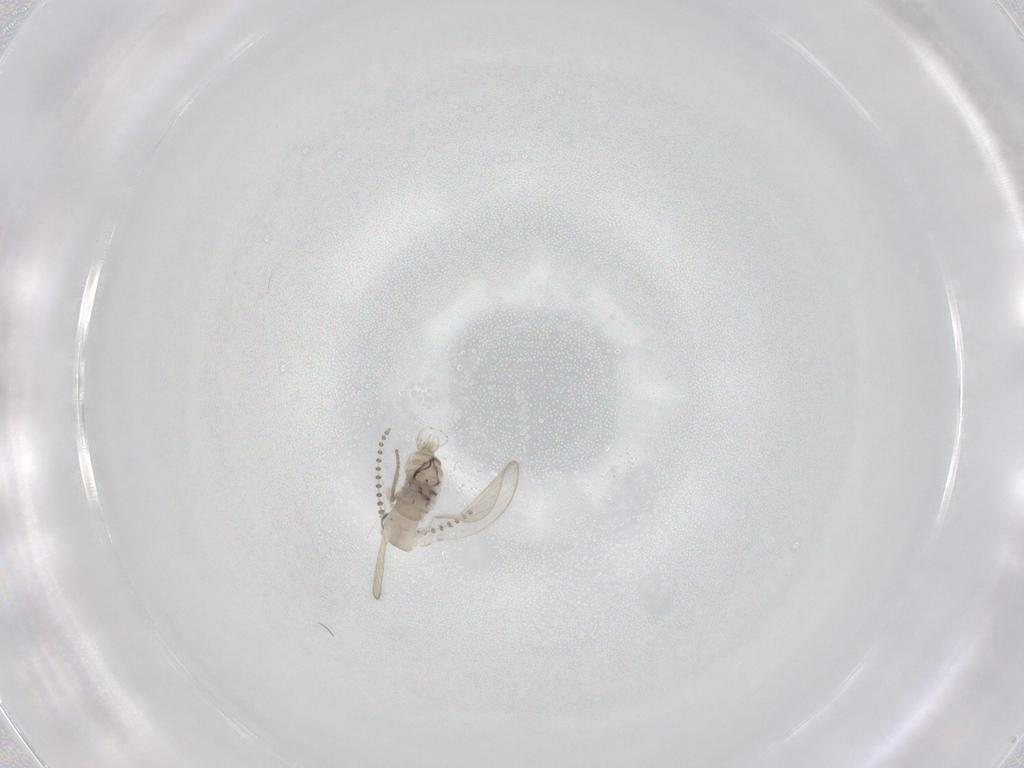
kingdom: Animalia
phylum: Arthropoda
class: Insecta
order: Diptera
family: Psychodidae
